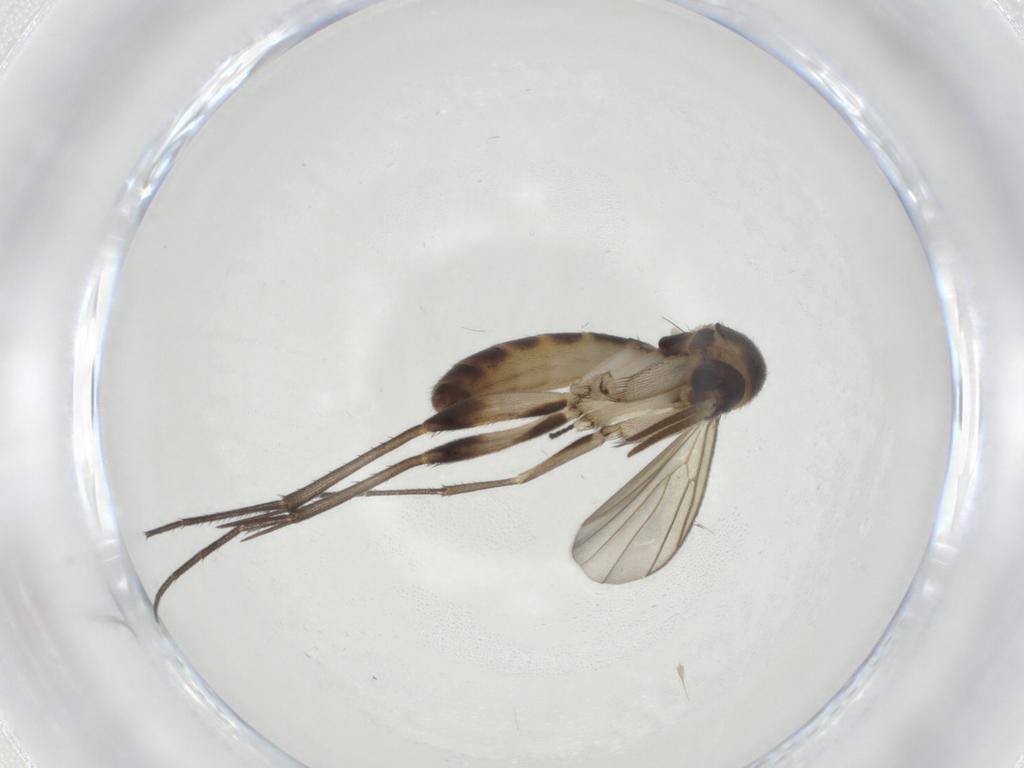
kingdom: Animalia
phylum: Arthropoda
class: Insecta
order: Diptera
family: Mycetophilidae
